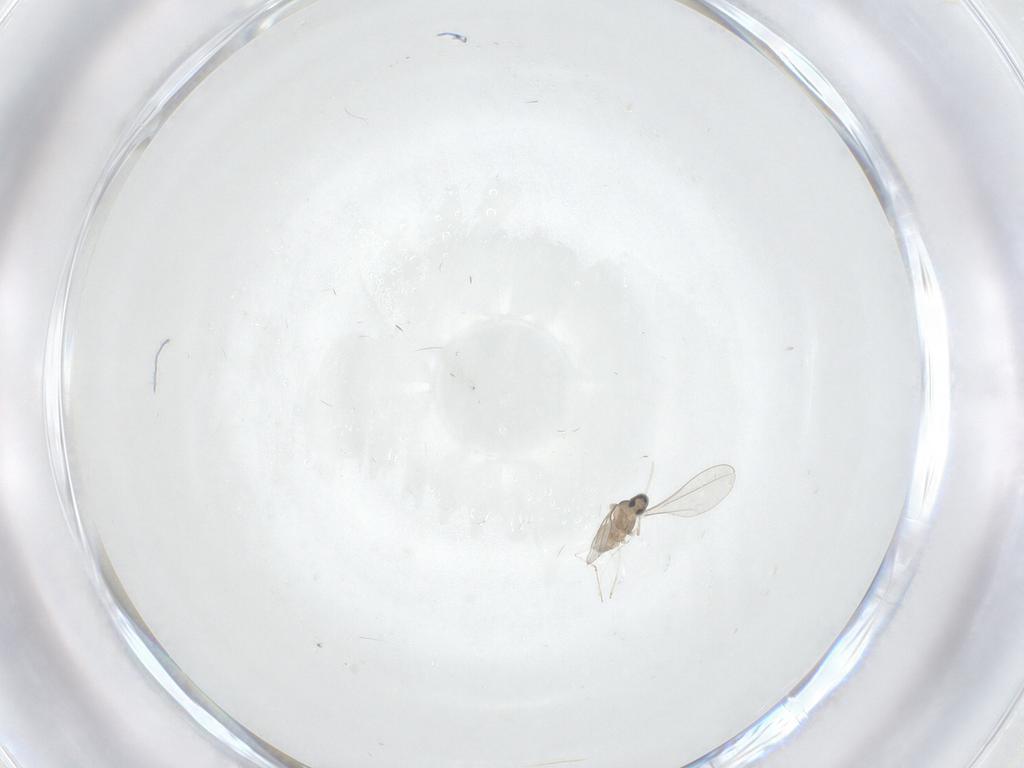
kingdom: Animalia
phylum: Arthropoda
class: Insecta
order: Diptera
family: Cecidomyiidae
